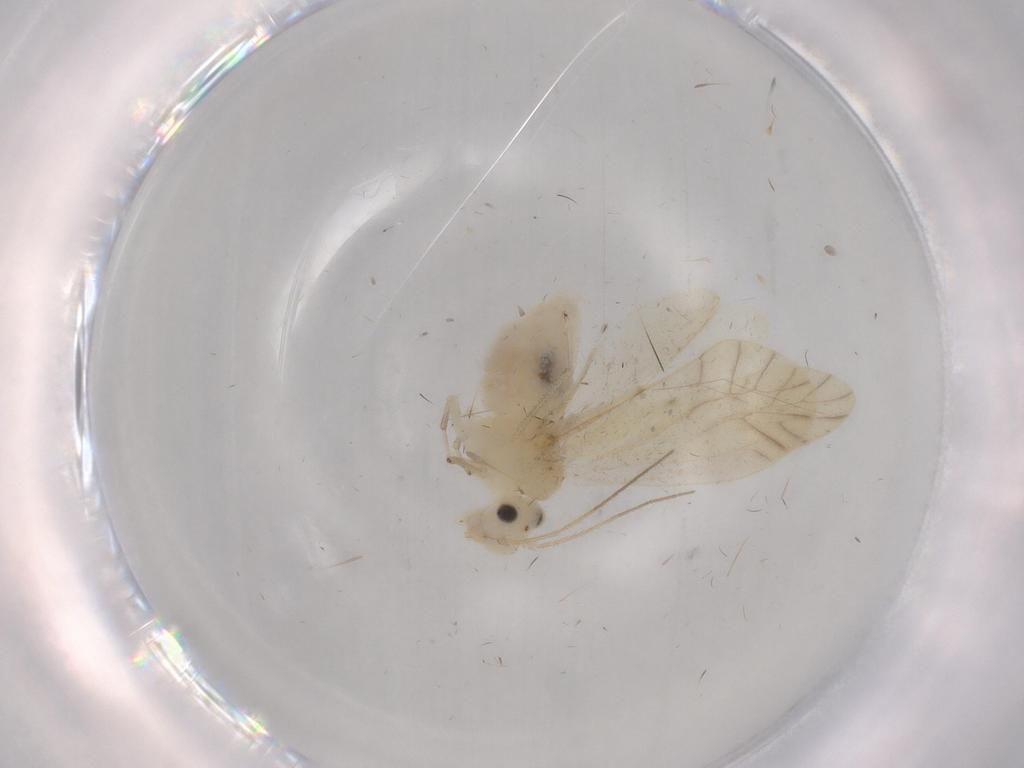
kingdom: Animalia
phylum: Arthropoda
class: Insecta
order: Psocodea
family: Caeciliusidae
